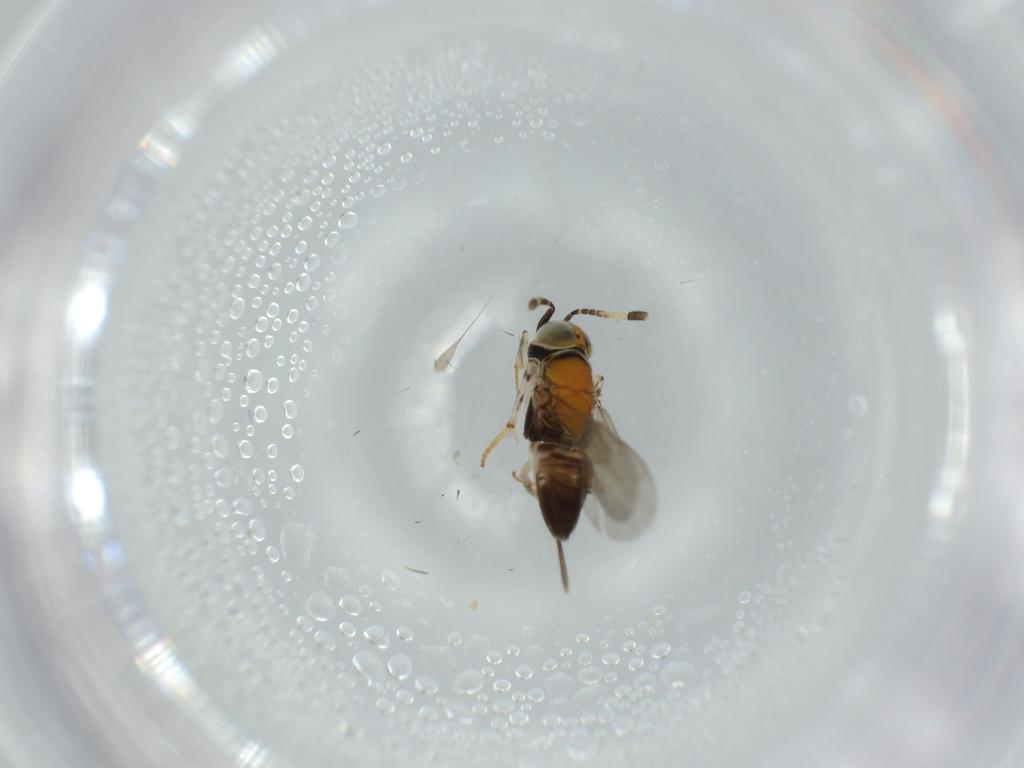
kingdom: Animalia
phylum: Arthropoda
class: Insecta
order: Hymenoptera
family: Encyrtidae
